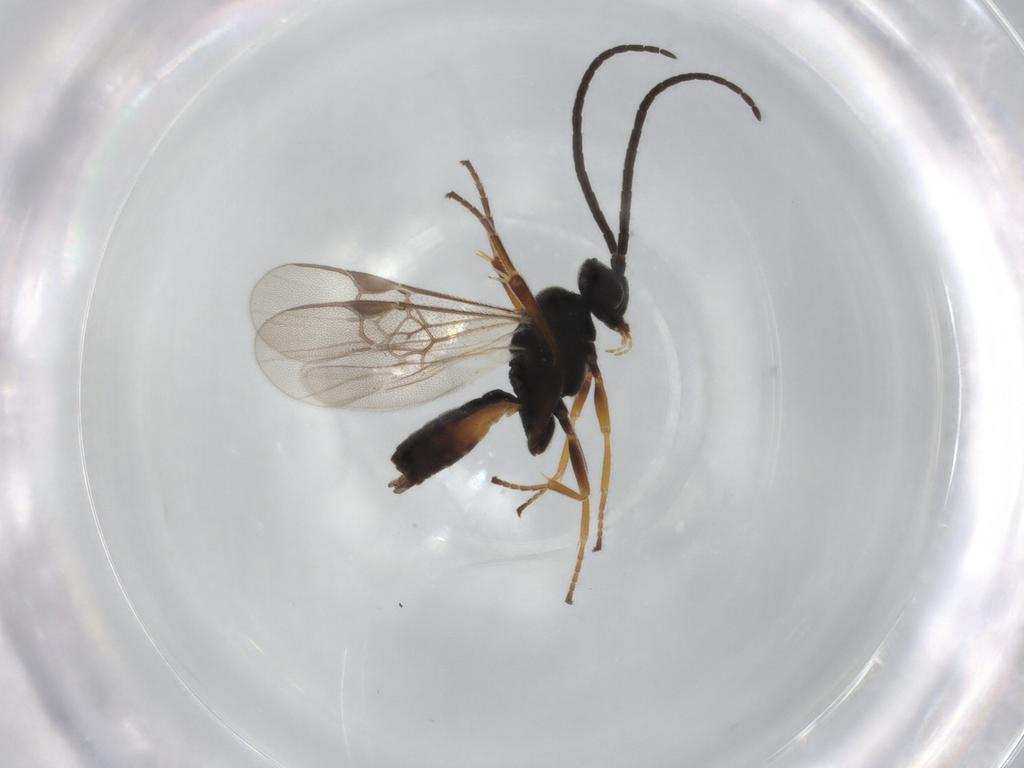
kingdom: Animalia
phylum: Arthropoda
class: Insecta
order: Hymenoptera
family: Braconidae
